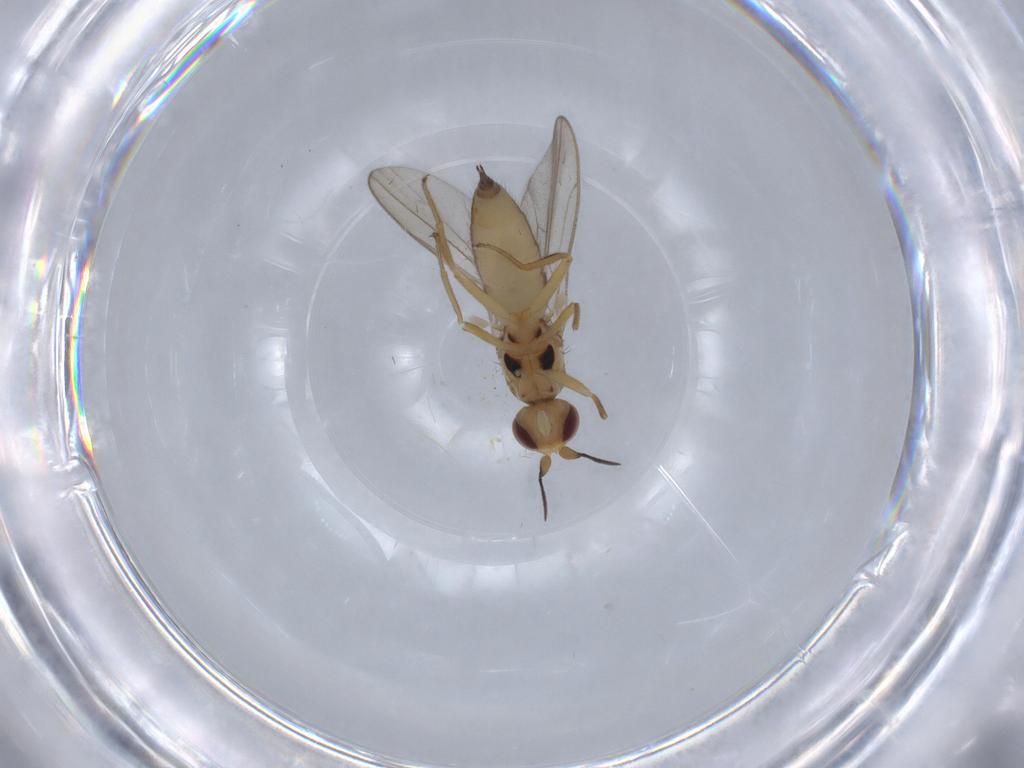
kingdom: Animalia
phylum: Arthropoda
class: Insecta
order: Diptera
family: Chloropidae
